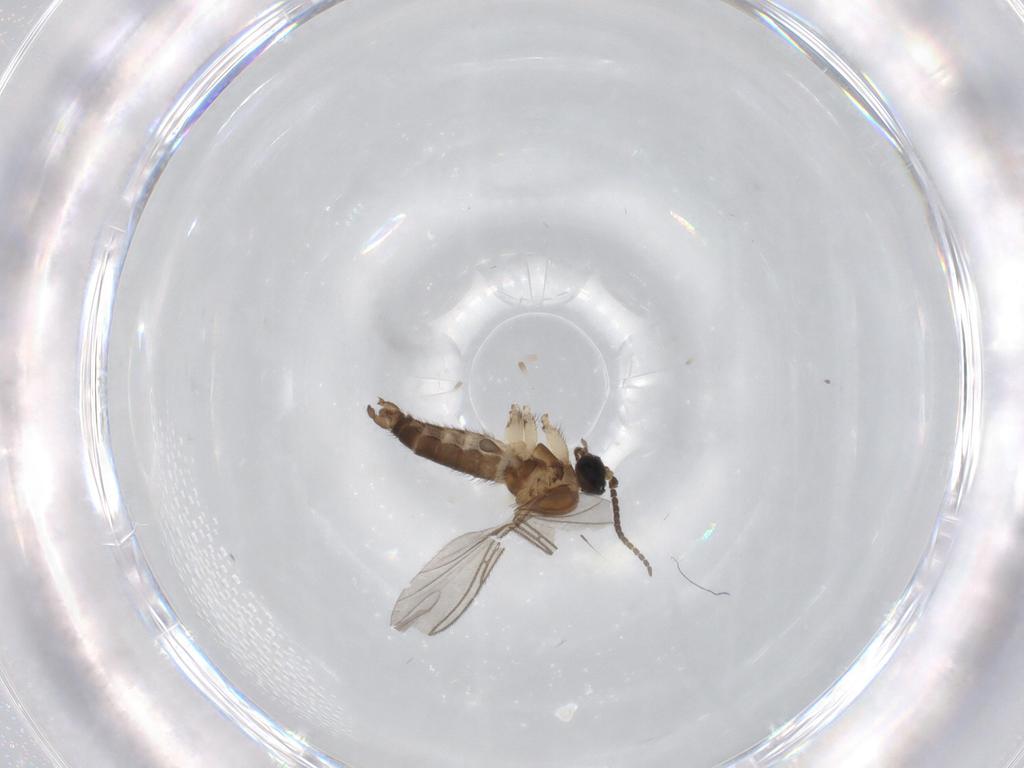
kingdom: Animalia
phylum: Arthropoda
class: Insecta
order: Diptera
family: Sciaridae
